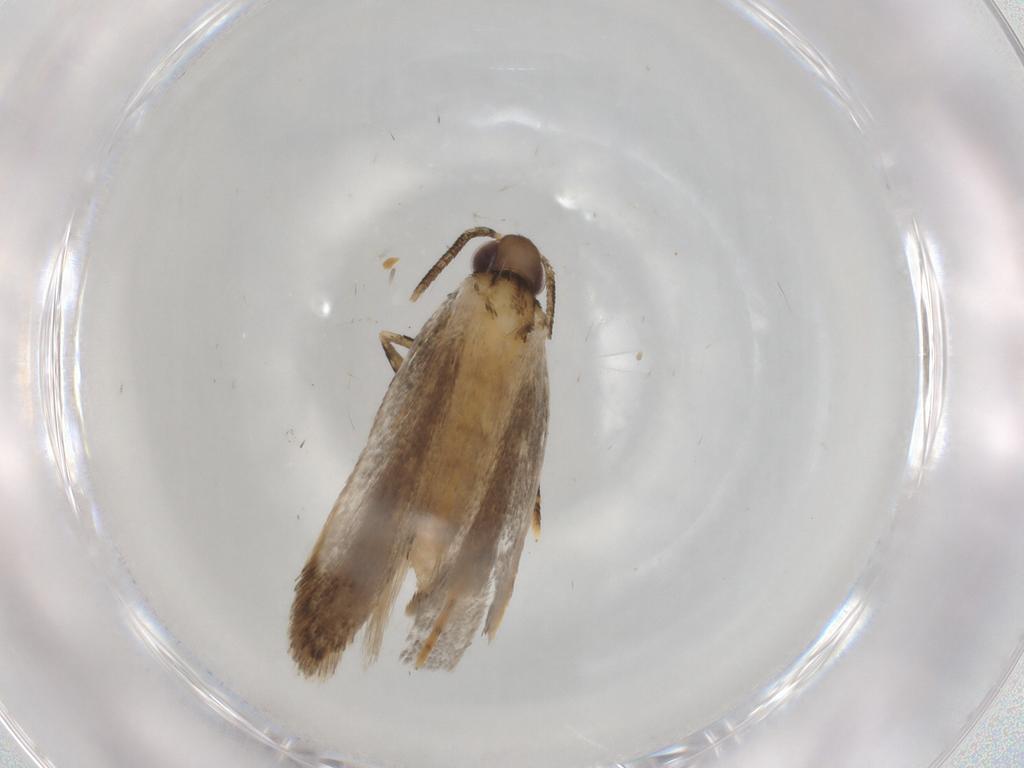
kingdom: Animalia
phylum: Arthropoda
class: Insecta
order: Lepidoptera
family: Autostichidae
